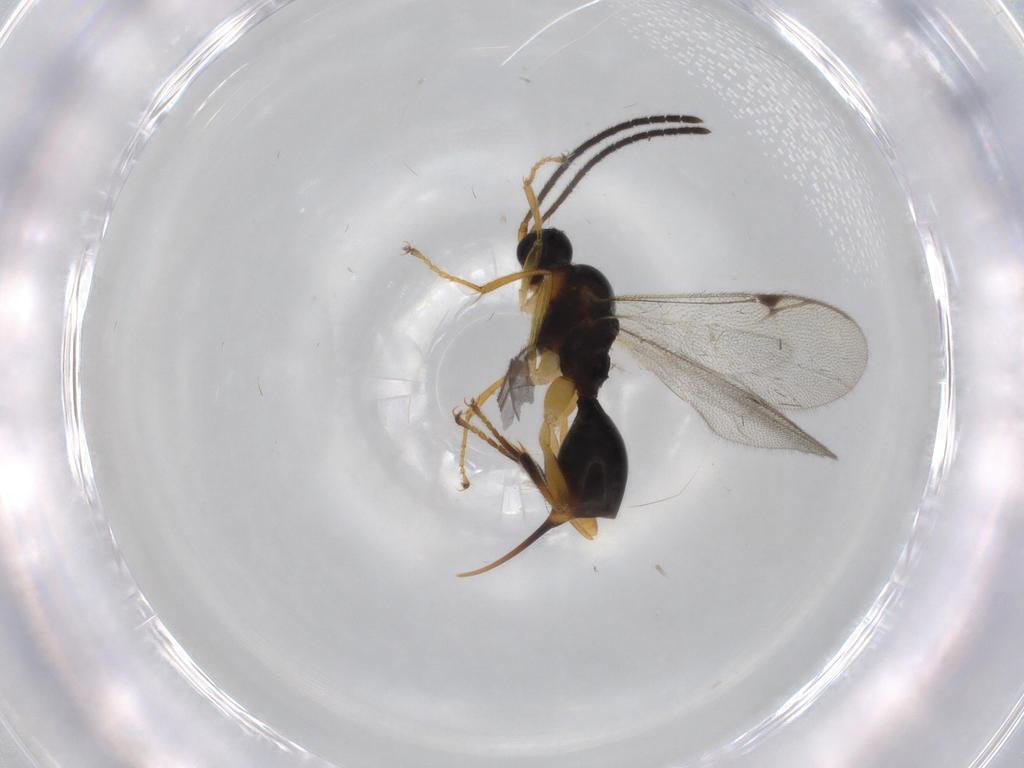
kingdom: Animalia
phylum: Arthropoda
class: Insecta
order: Hymenoptera
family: Proctotrupidae
